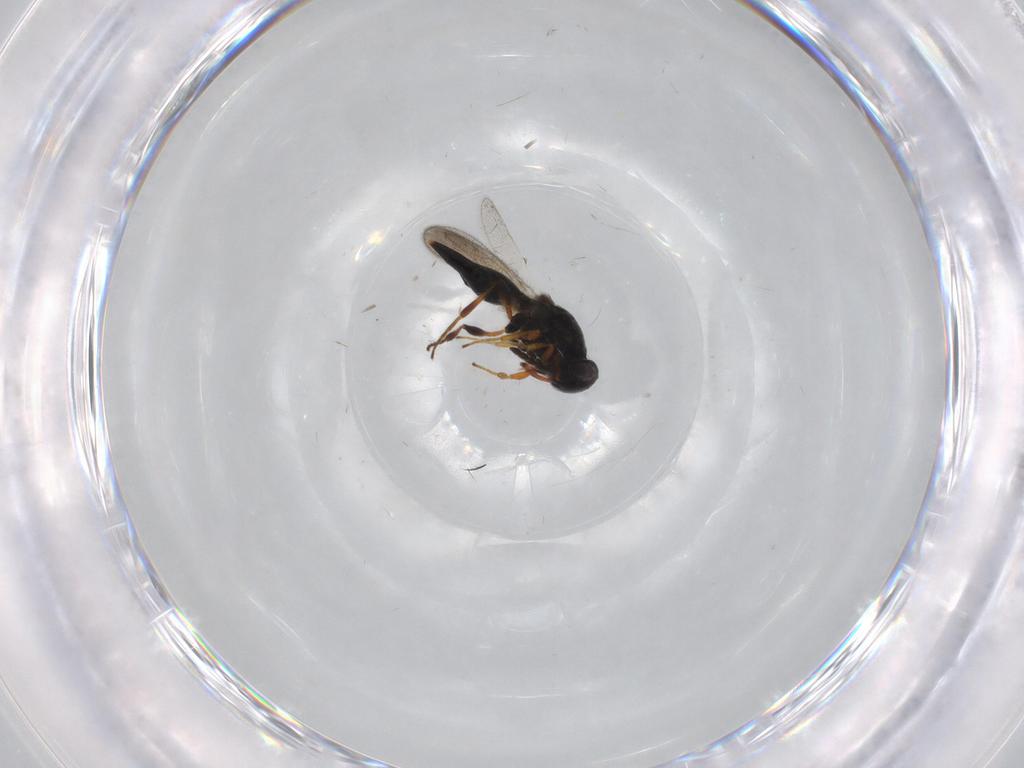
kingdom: Animalia
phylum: Arthropoda
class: Insecta
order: Hymenoptera
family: Platygastridae
